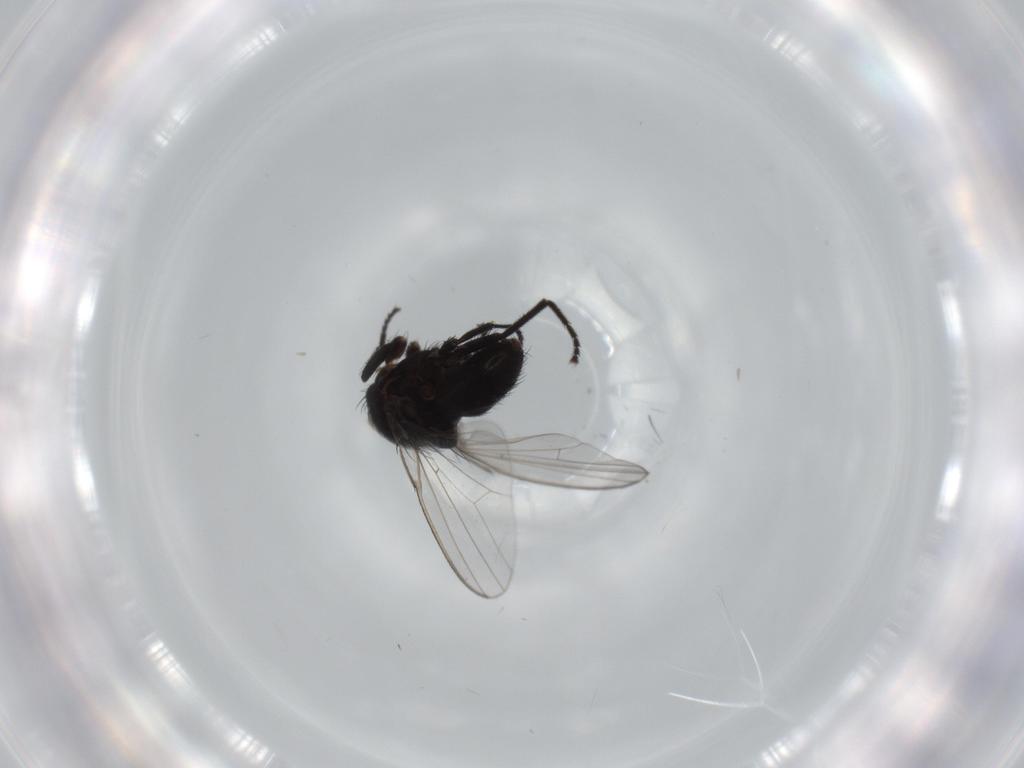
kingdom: Animalia
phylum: Arthropoda
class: Insecta
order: Diptera
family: Milichiidae
